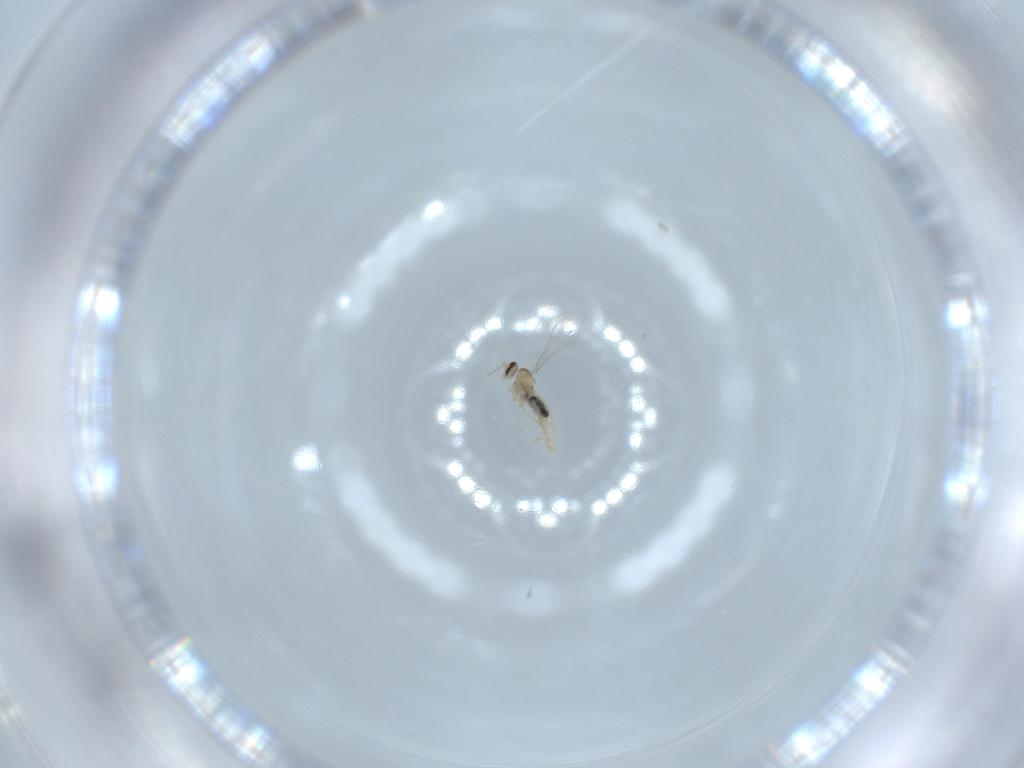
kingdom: Animalia
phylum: Arthropoda
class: Insecta
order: Diptera
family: Cecidomyiidae
